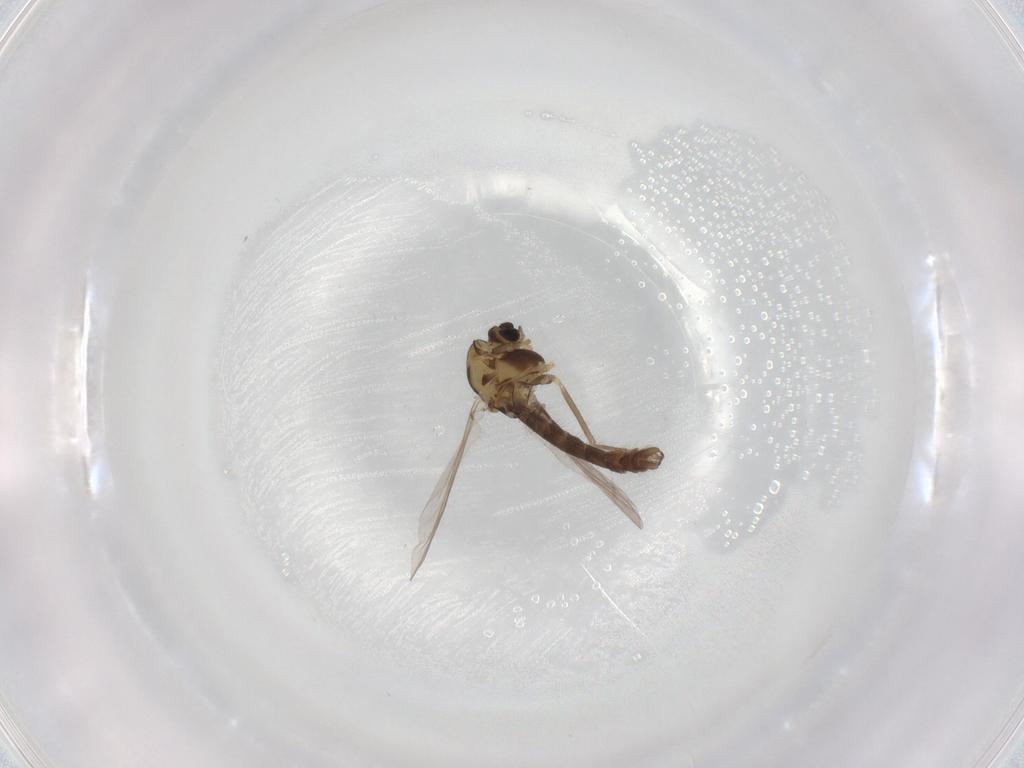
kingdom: Animalia
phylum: Arthropoda
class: Insecta
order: Diptera
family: Chironomidae
